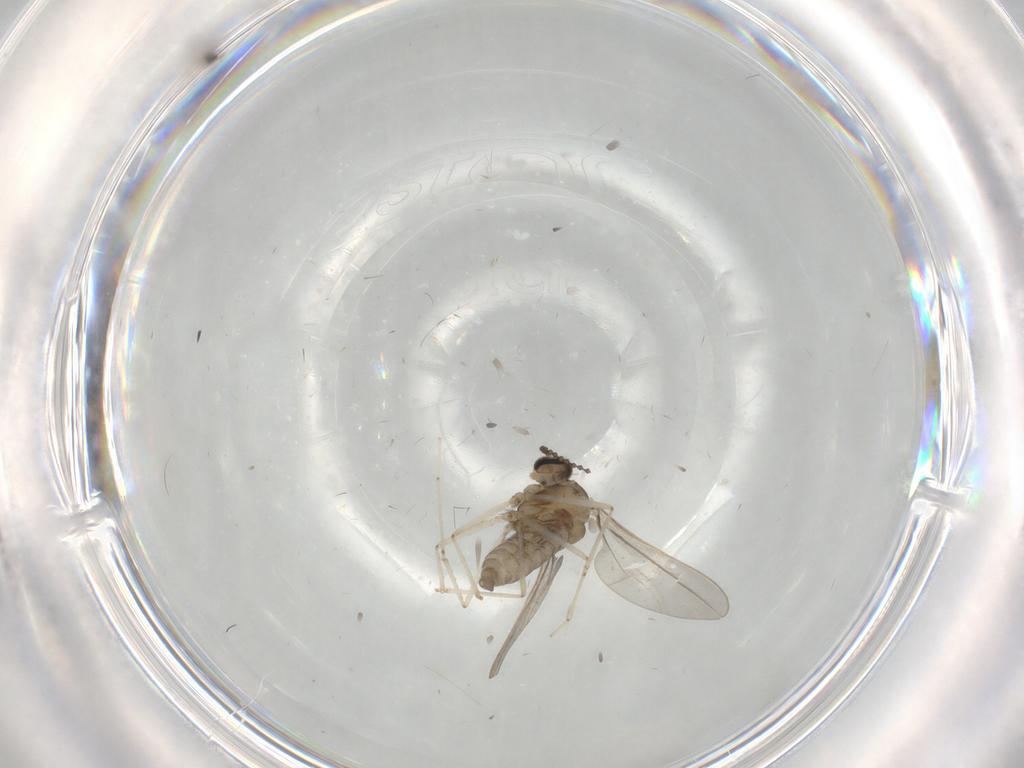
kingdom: Animalia
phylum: Arthropoda
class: Insecta
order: Diptera
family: Cecidomyiidae
